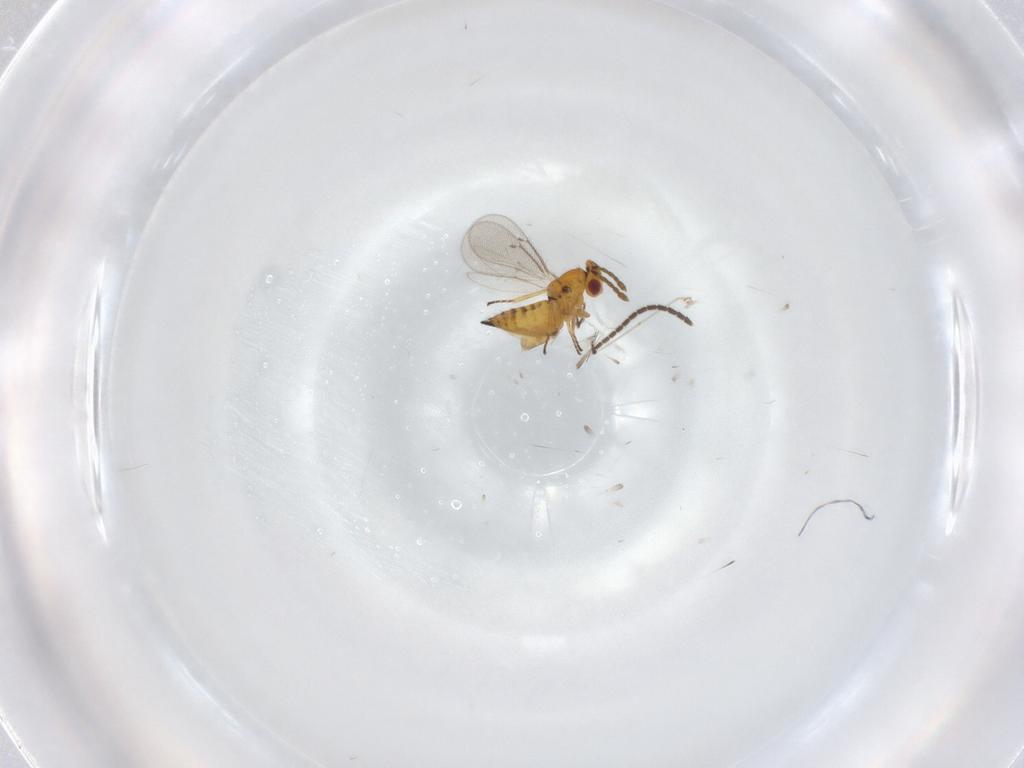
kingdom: Animalia
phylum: Arthropoda
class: Insecta
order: Hymenoptera
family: Eulophidae
